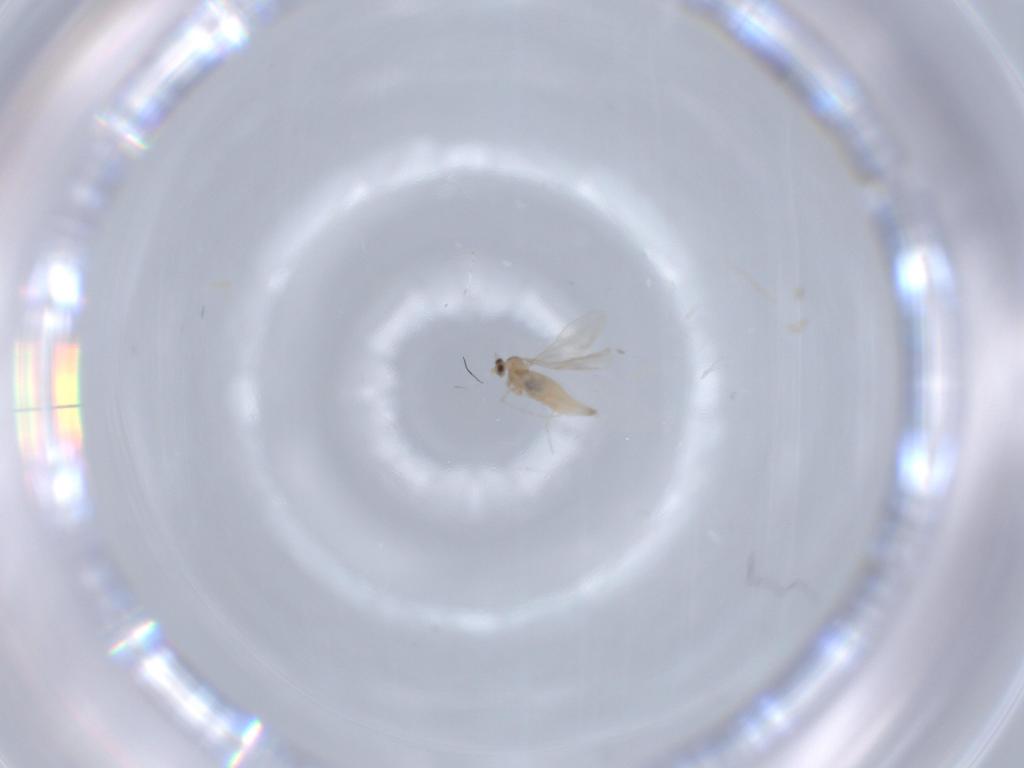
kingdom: Animalia
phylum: Arthropoda
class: Insecta
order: Diptera
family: Cecidomyiidae
